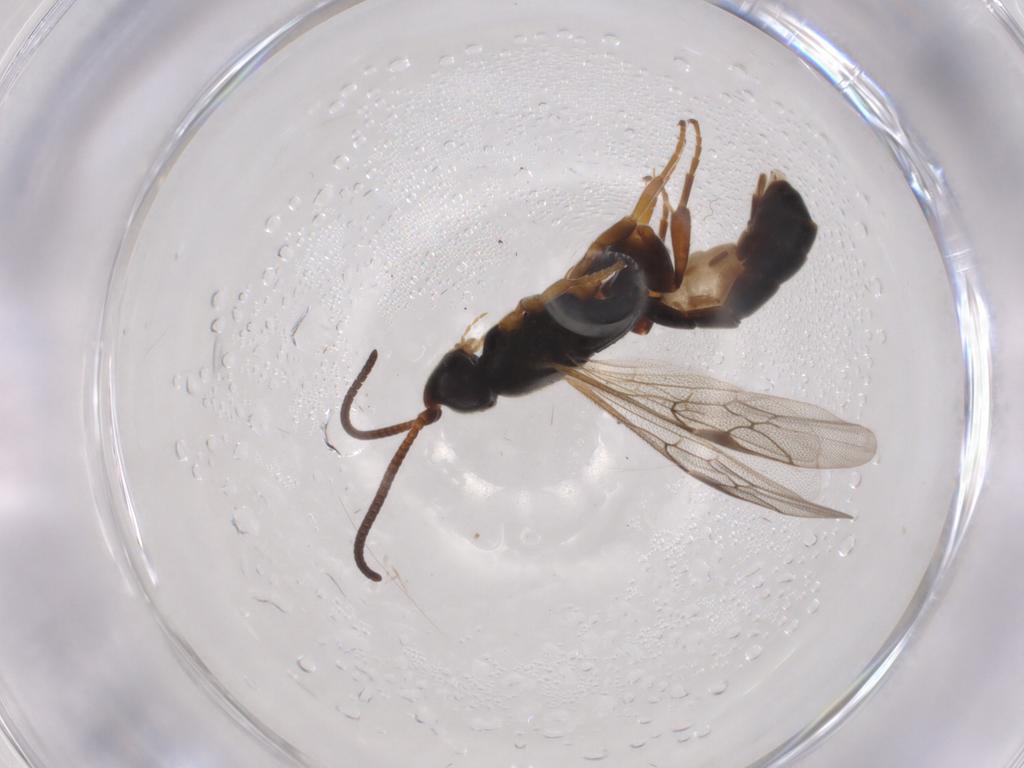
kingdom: Animalia
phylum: Arthropoda
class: Insecta
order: Hymenoptera
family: Ichneumonidae
